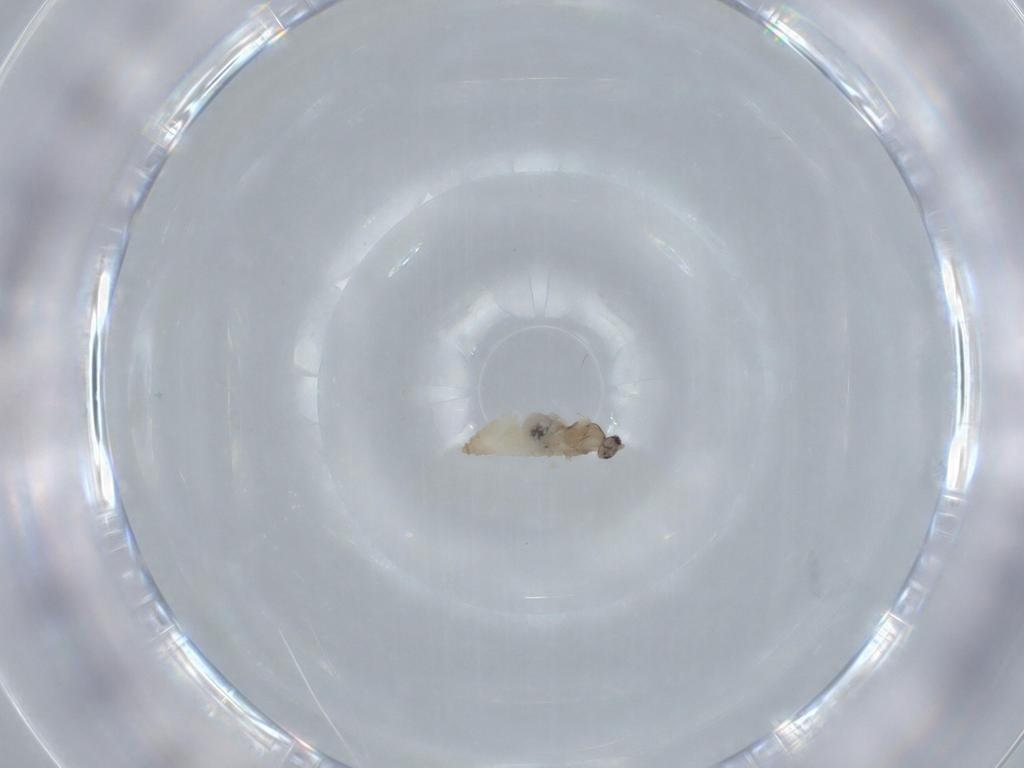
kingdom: Animalia
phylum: Arthropoda
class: Insecta
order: Diptera
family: Cecidomyiidae
